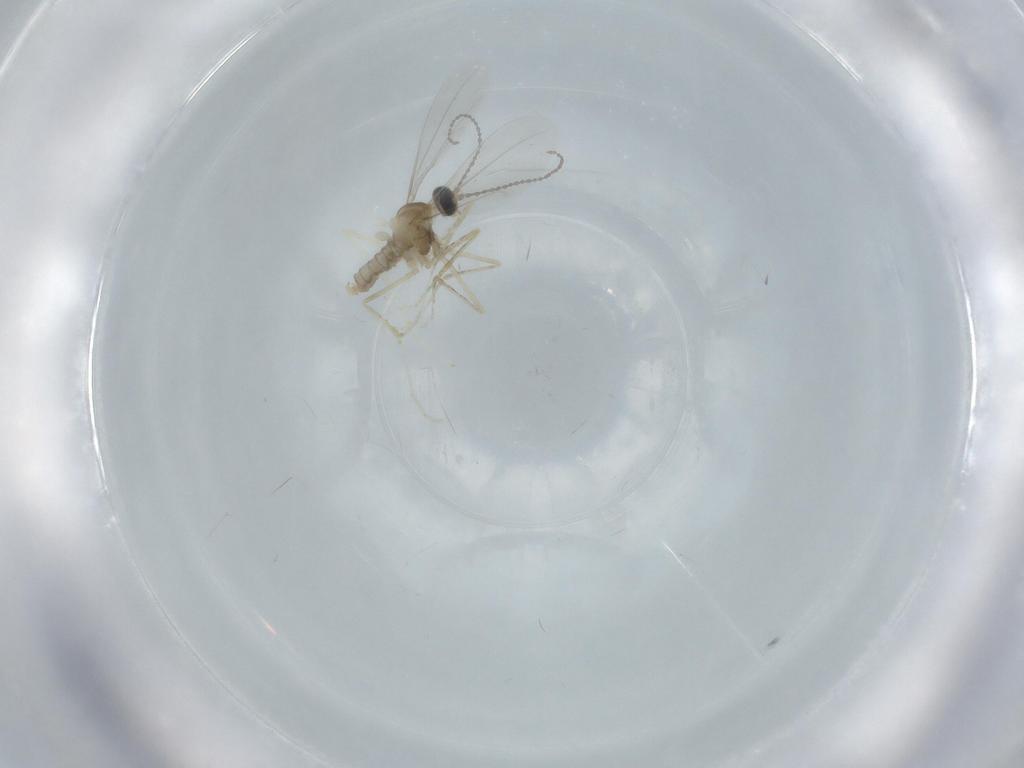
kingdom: Animalia
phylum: Arthropoda
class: Insecta
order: Diptera
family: Cecidomyiidae
